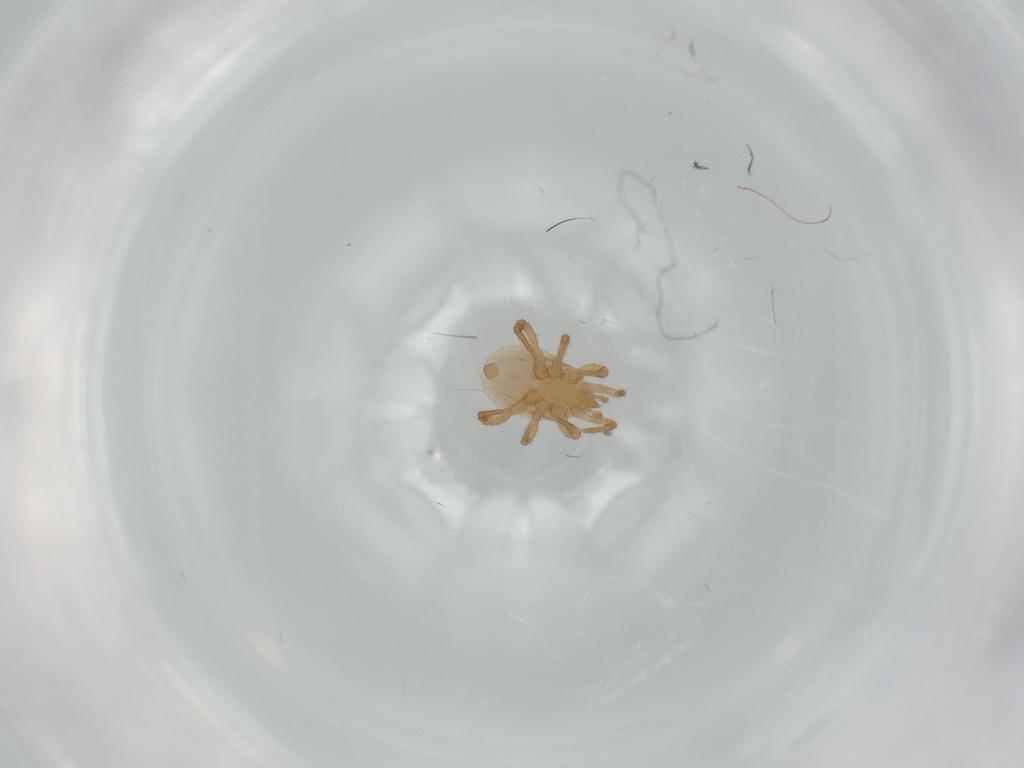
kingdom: Animalia
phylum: Arthropoda
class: Arachnida
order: Mesostigmata
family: Parasitidae
